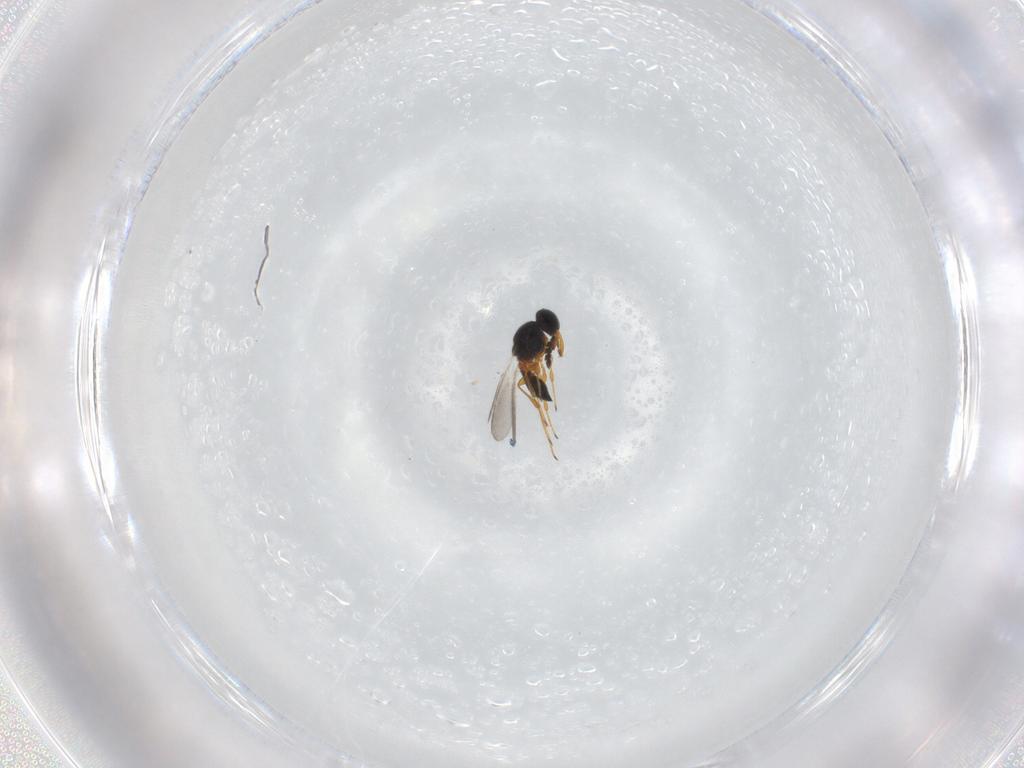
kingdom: Animalia
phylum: Arthropoda
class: Insecta
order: Hymenoptera
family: Platygastridae
